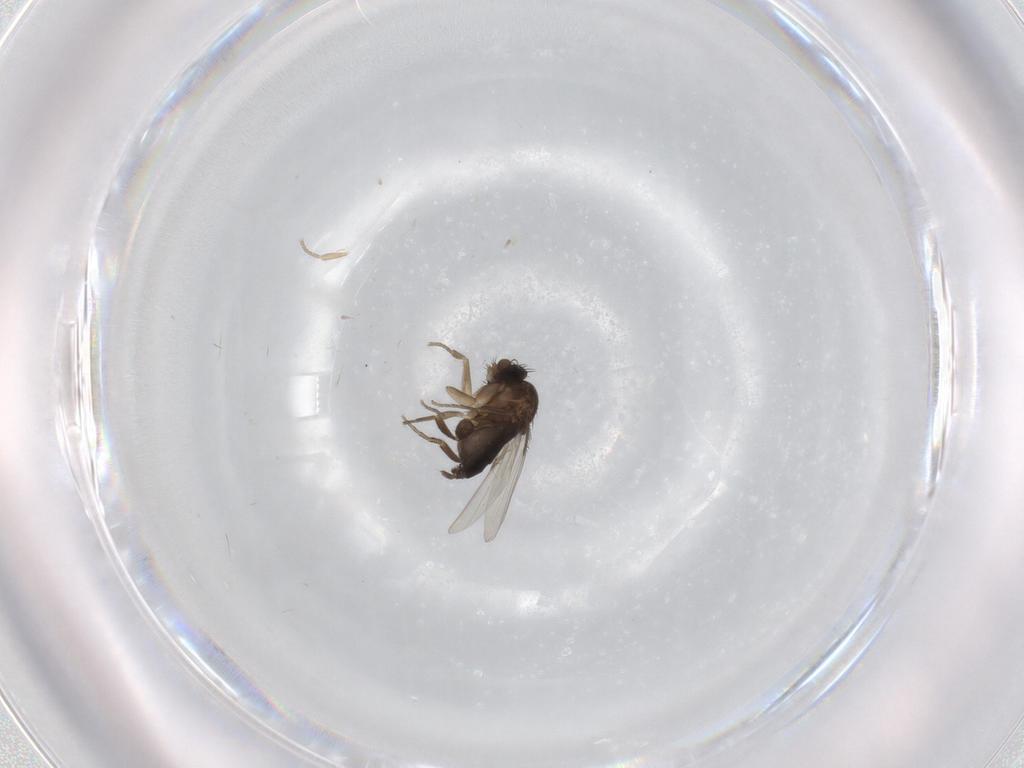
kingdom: Animalia
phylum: Arthropoda
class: Insecta
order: Diptera
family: Phoridae
